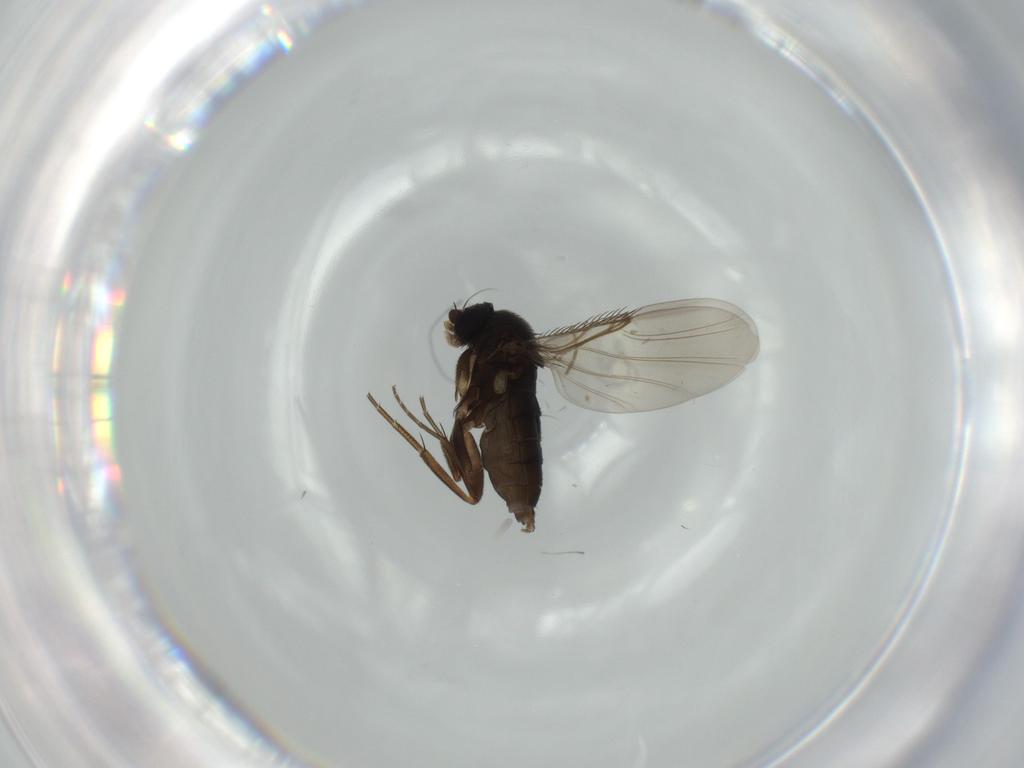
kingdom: Animalia
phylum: Arthropoda
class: Insecta
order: Diptera
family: Phoridae
